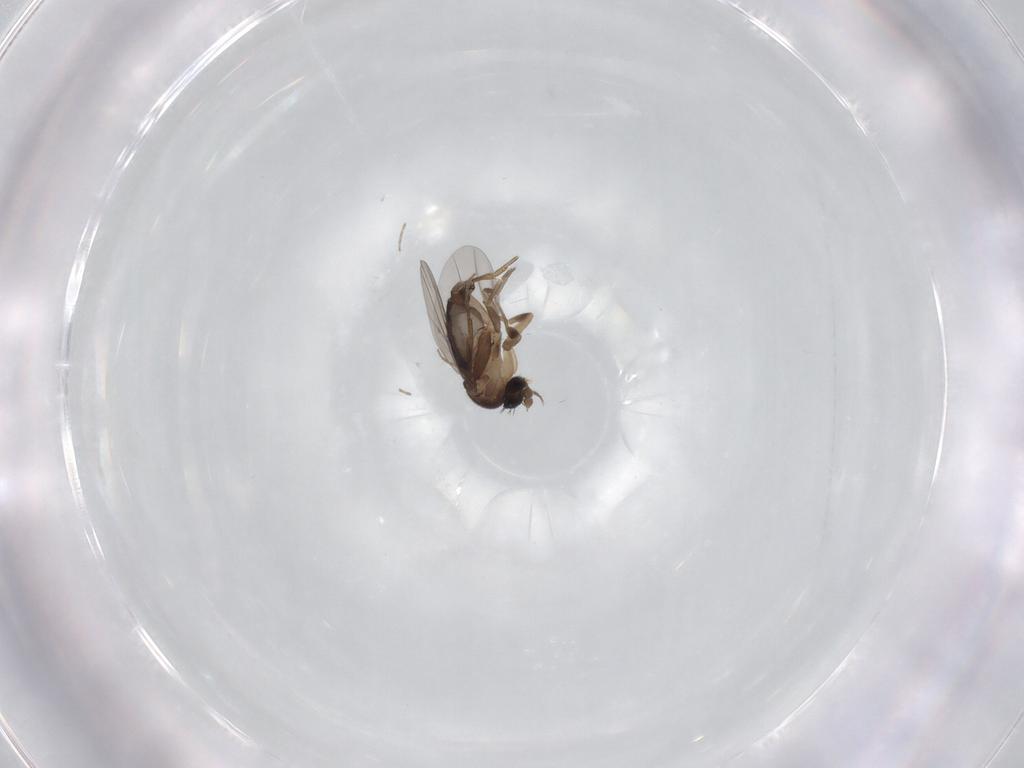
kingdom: Animalia
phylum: Arthropoda
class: Insecta
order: Diptera
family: Phoridae
